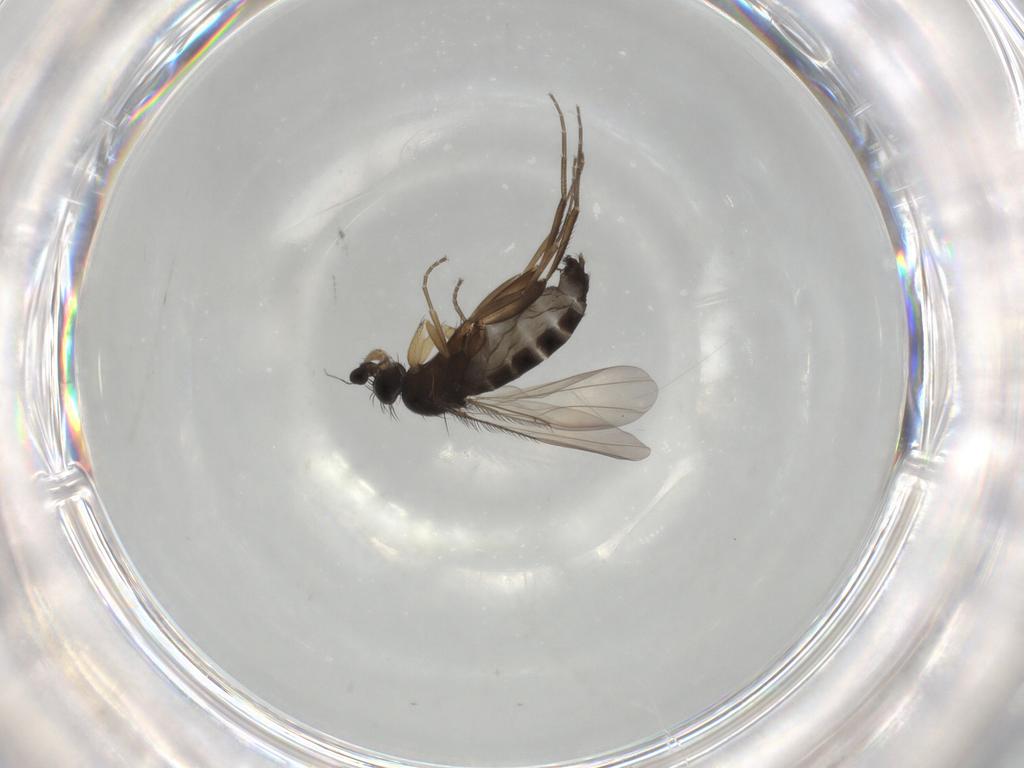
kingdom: Animalia
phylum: Arthropoda
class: Insecta
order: Diptera
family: Phoridae
